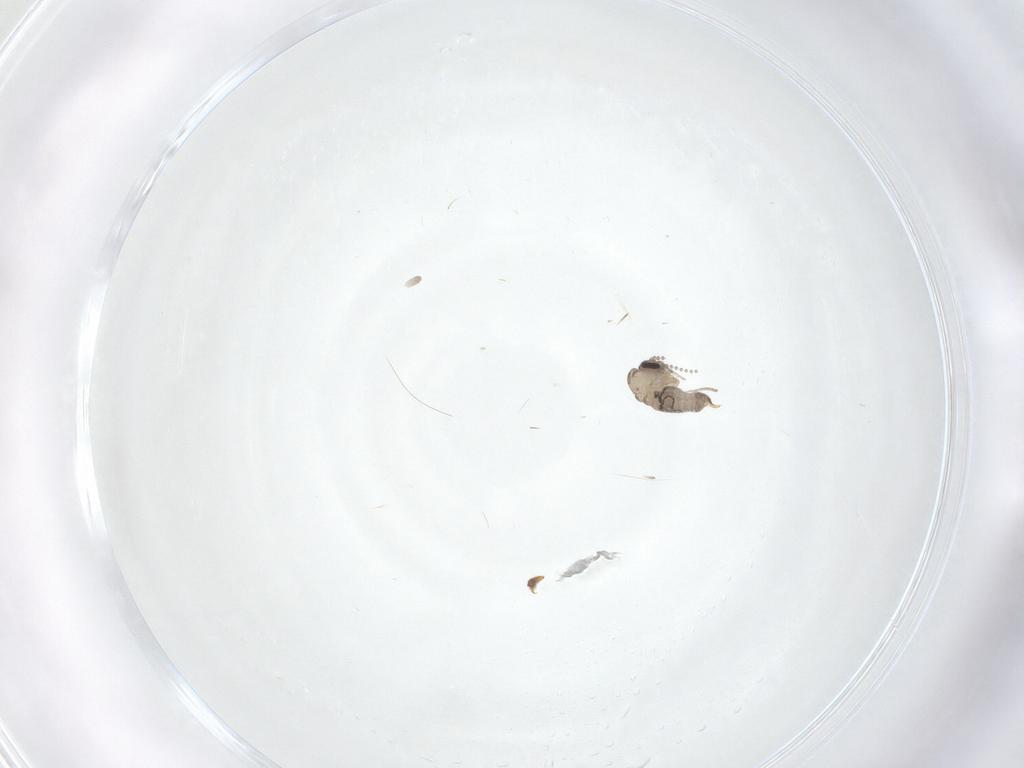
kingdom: Animalia
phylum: Arthropoda
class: Insecta
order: Diptera
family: Psychodidae
